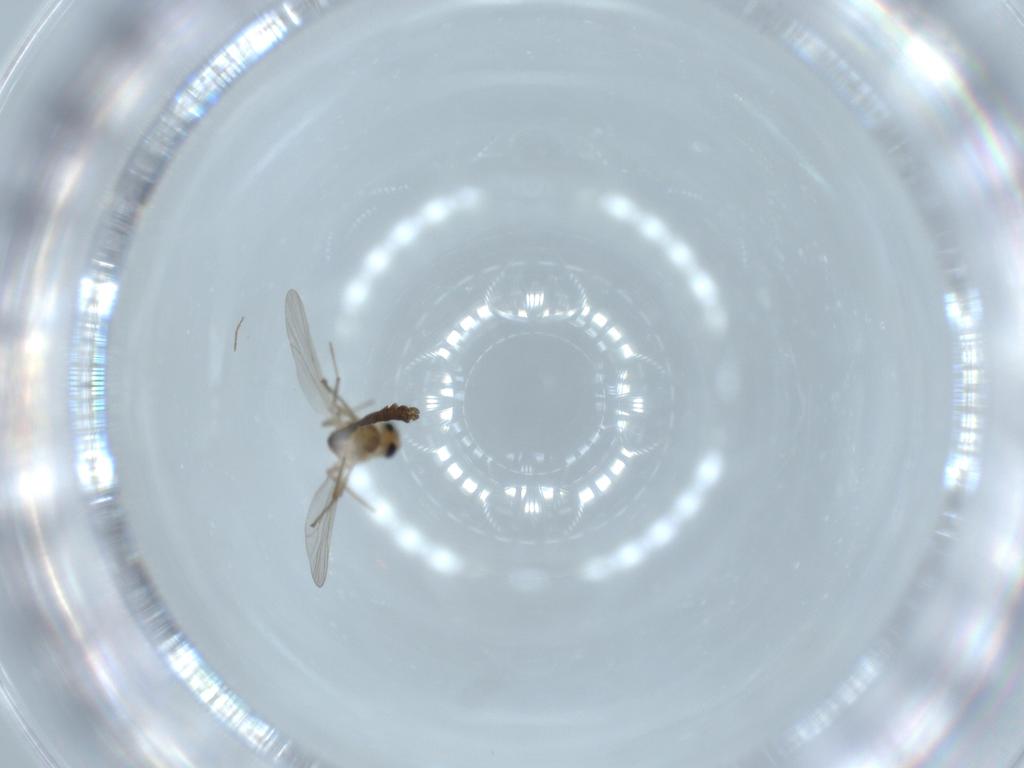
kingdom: Animalia
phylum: Arthropoda
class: Insecta
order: Diptera
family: Chironomidae
